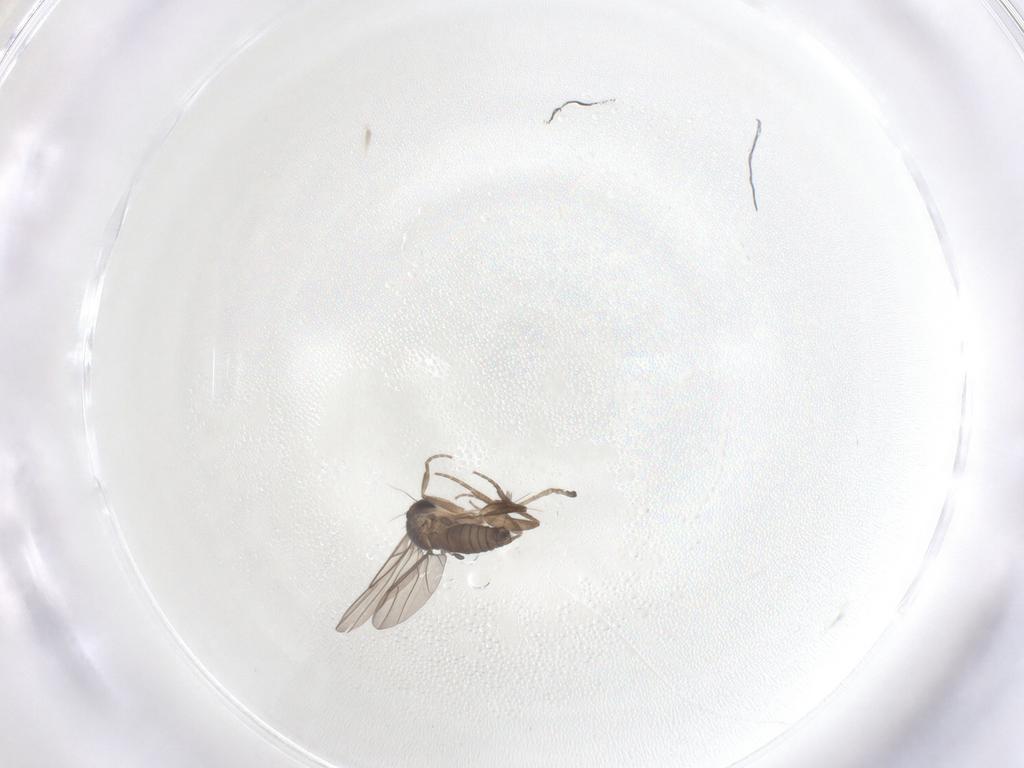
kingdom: Animalia
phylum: Arthropoda
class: Insecta
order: Diptera
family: Phoridae
